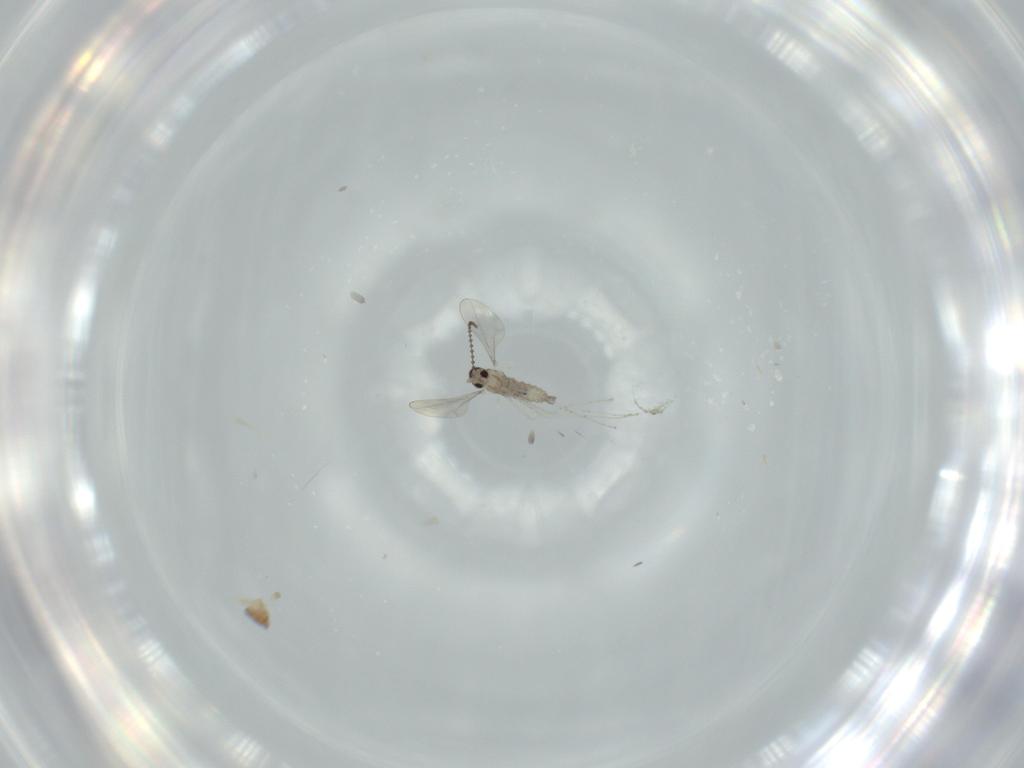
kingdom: Animalia
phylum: Arthropoda
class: Insecta
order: Diptera
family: Cecidomyiidae
